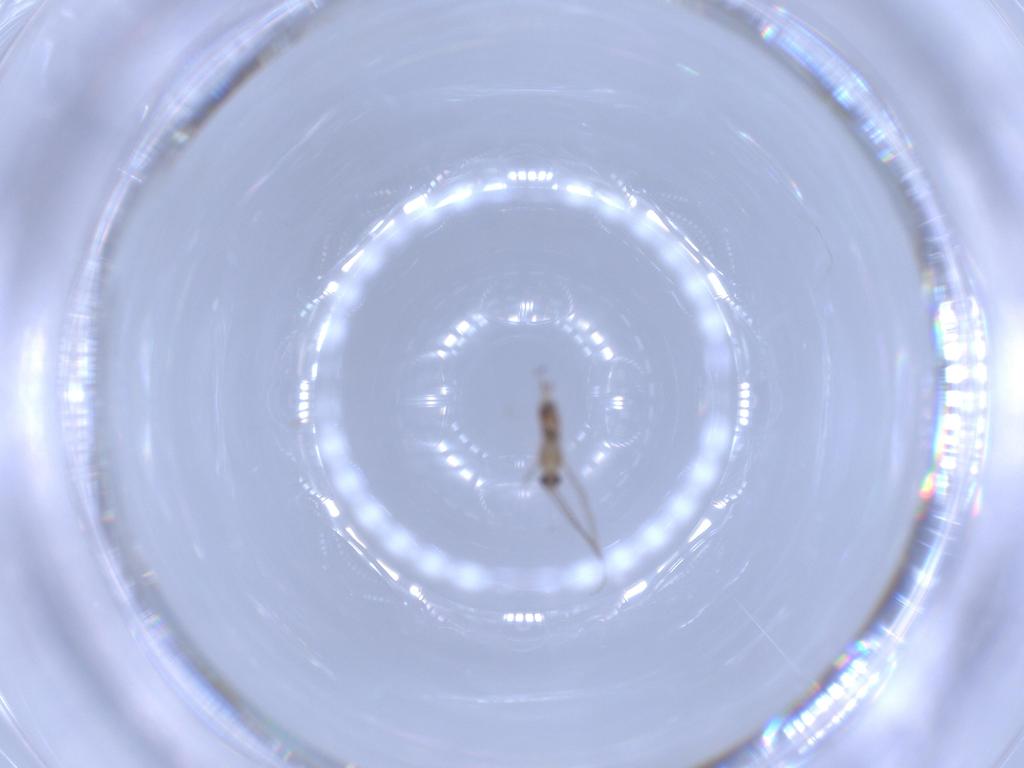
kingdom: Animalia
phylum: Arthropoda
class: Insecta
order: Diptera
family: Cecidomyiidae
